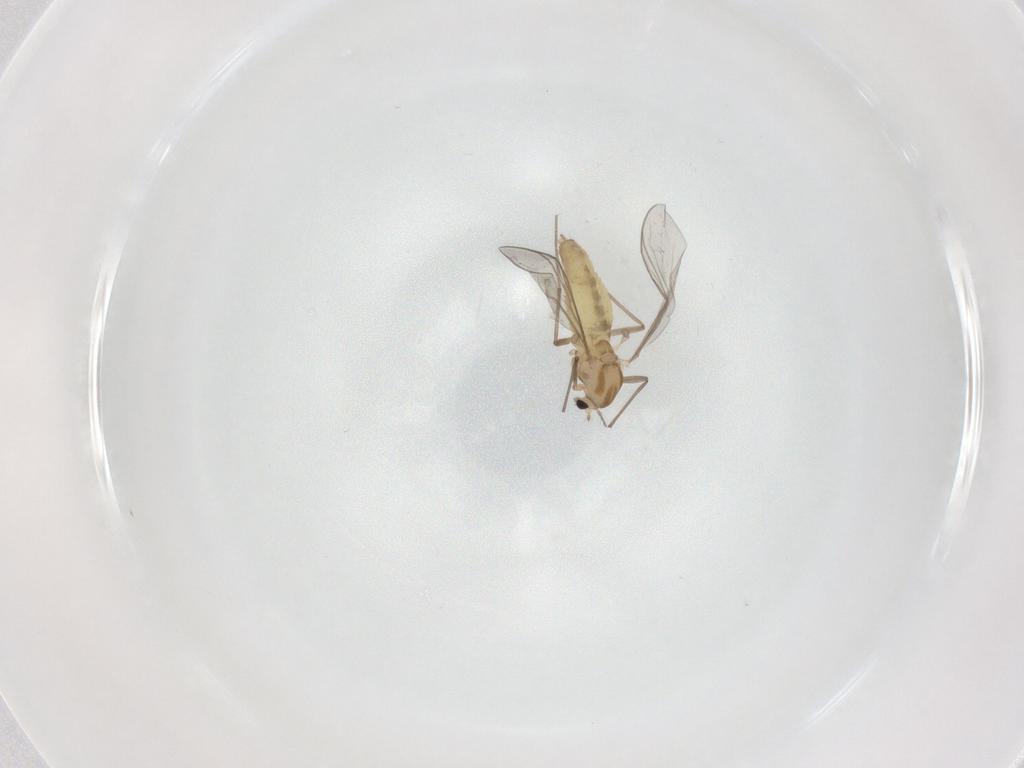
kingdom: Animalia
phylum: Arthropoda
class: Insecta
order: Diptera
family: Chironomidae
